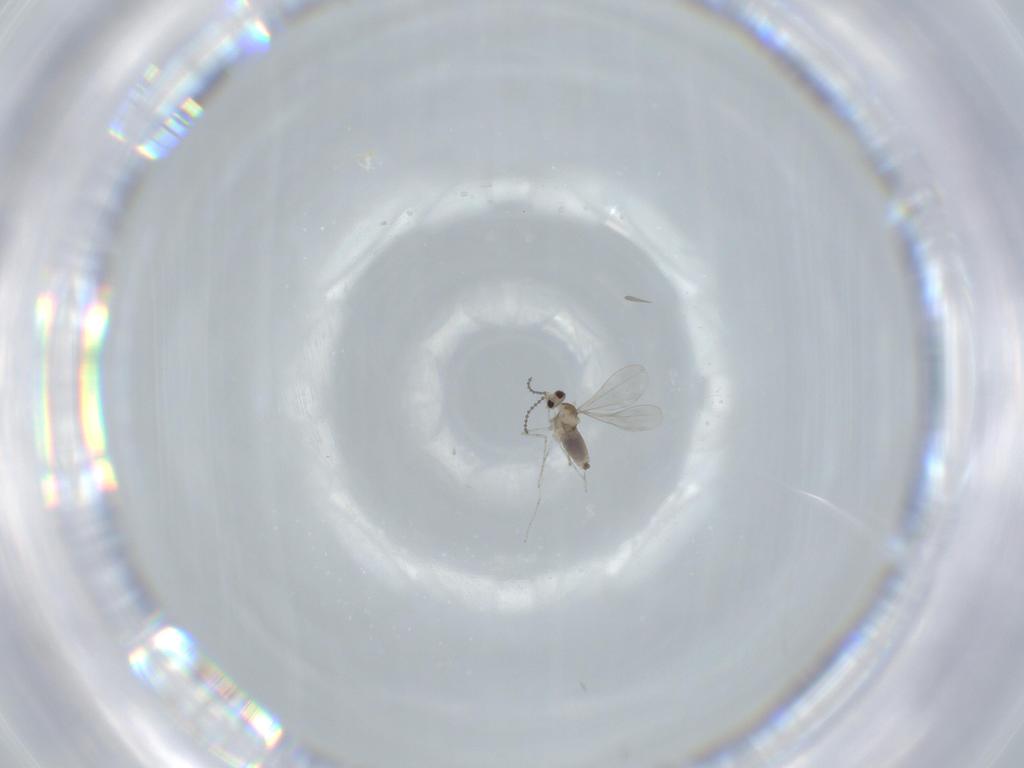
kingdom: Animalia
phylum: Arthropoda
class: Insecta
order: Diptera
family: Cecidomyiidae
